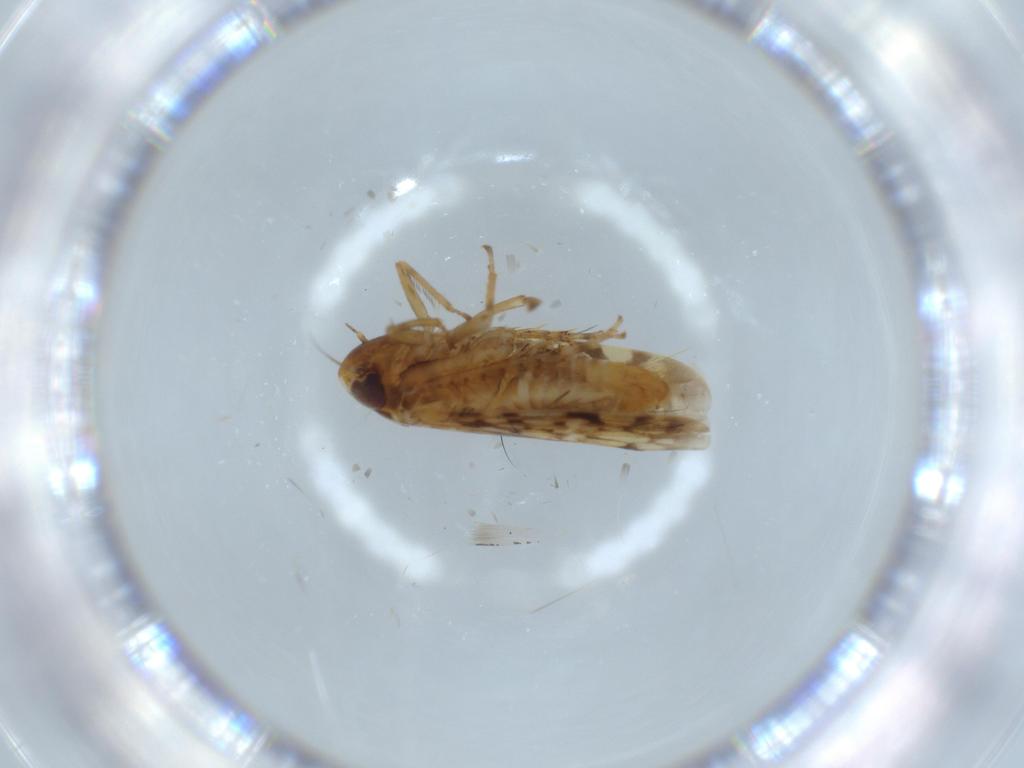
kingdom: Animalia
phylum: Arthropoda
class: Insecta
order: Hemiptera
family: Cicadellidae
